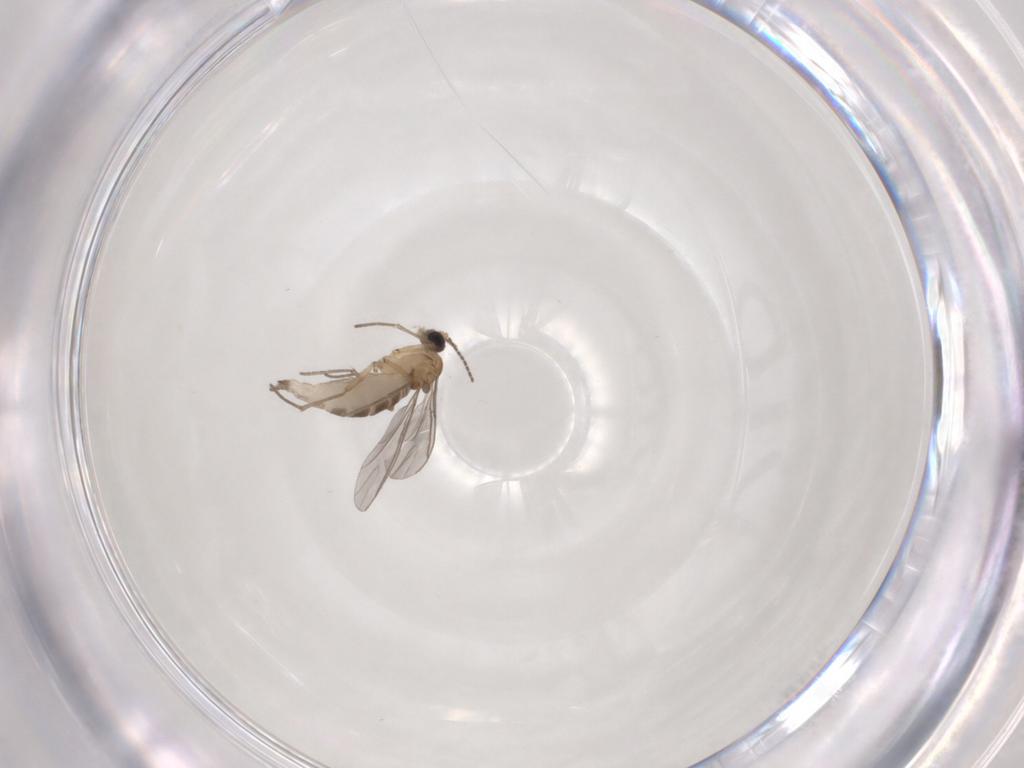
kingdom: Animalia
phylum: Arthropoda
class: Insecta
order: Diptera
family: Sciaridae
